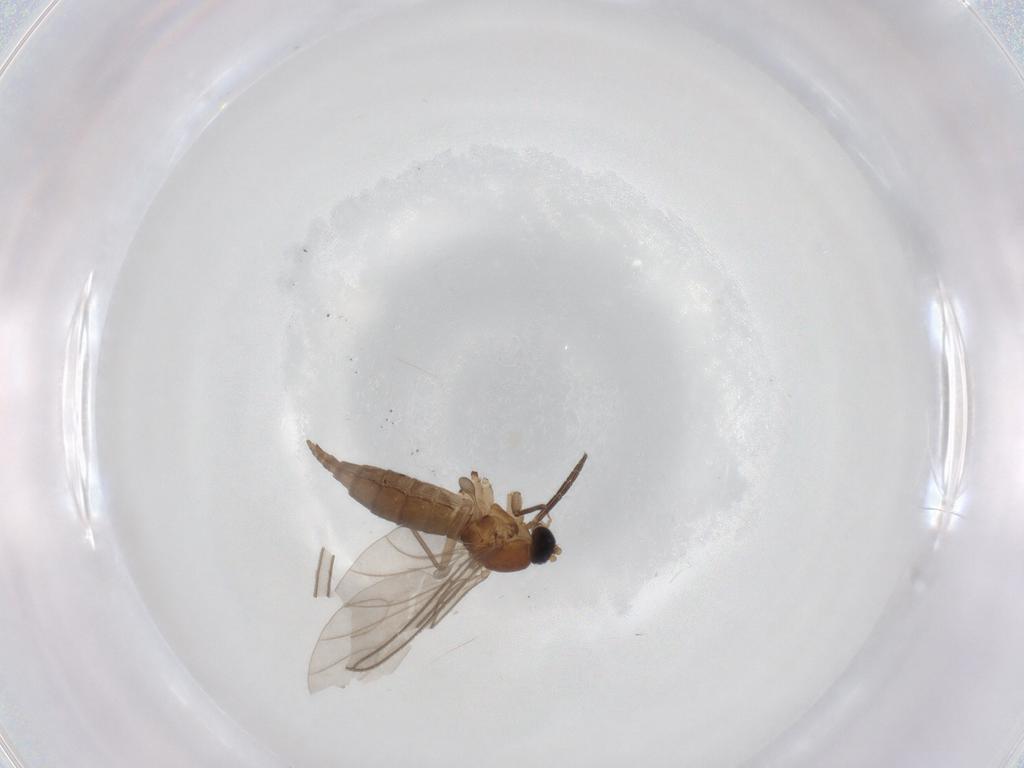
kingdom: Animalia
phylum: Arthropoda
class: Insecta
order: Diptera
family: Sciaridae
